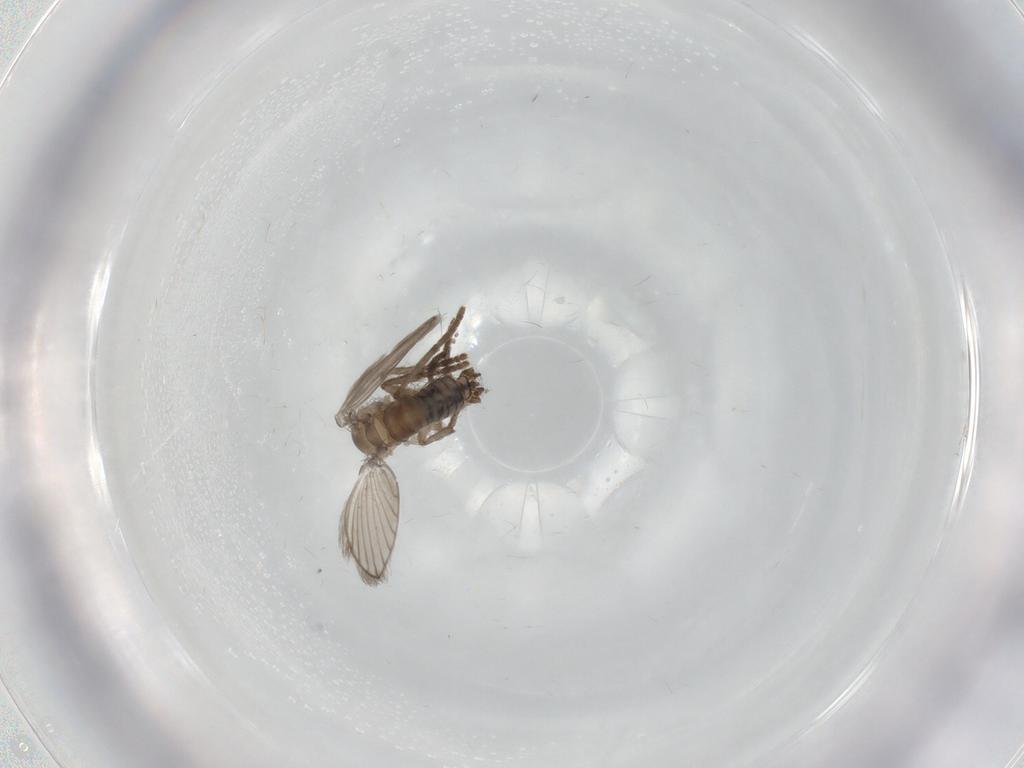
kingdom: Animalia
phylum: Arthropoda
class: Insecta
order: Diptera
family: Psychodidae
